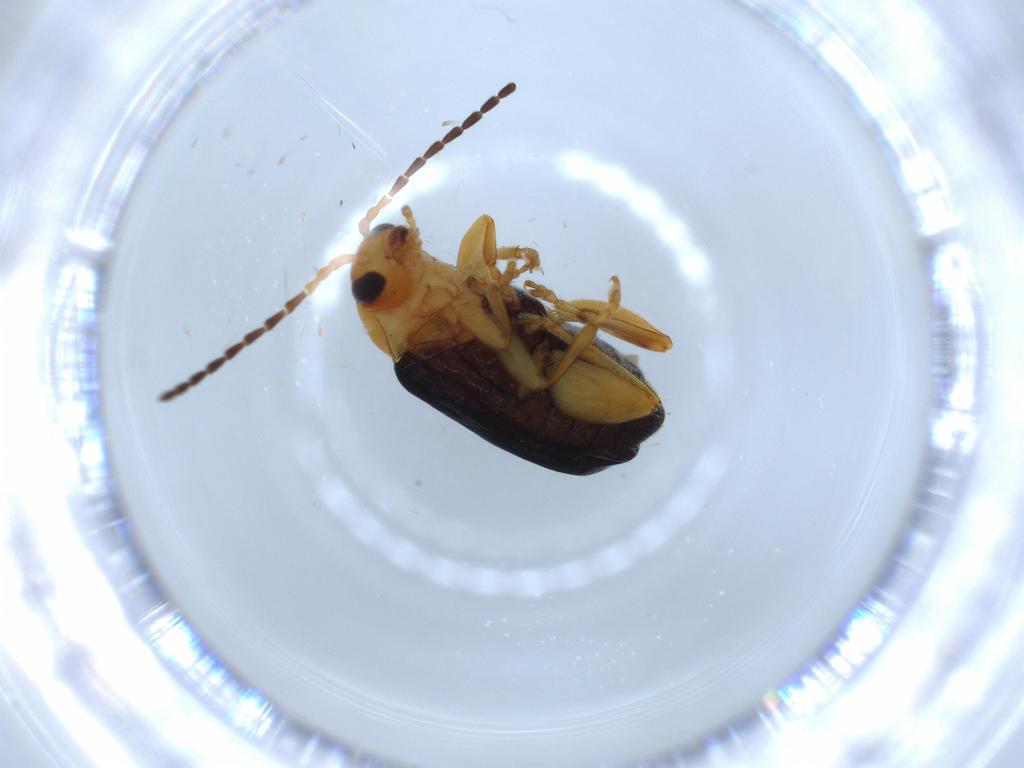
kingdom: Animalia
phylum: Arthropoda
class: Insecta
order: Coleoptera
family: Chrysomelidae
